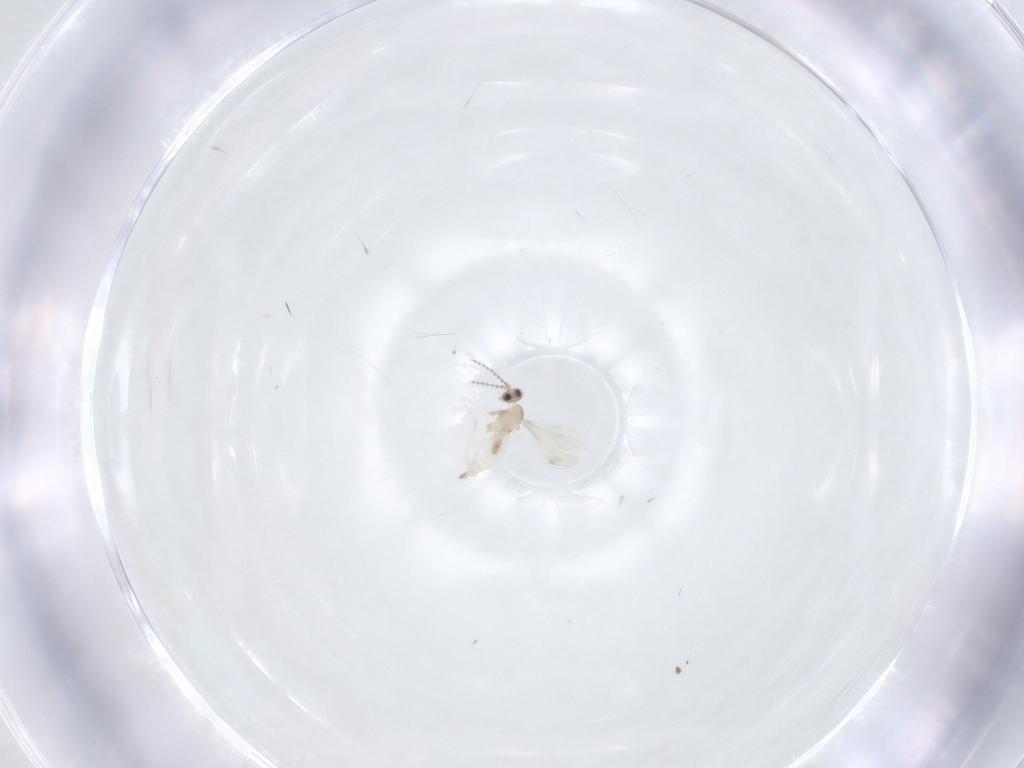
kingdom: Animalia
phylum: Arthropoda
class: Insecta
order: Diptera
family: Cecidomyiidae
